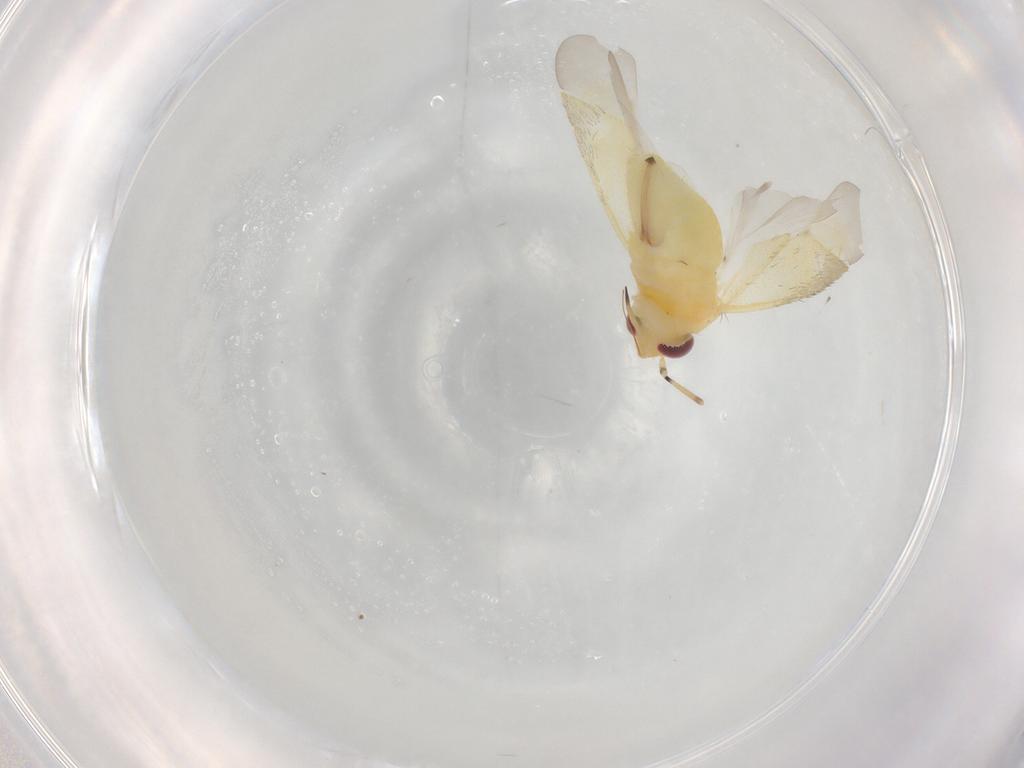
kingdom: Animalia
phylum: Arthropoda
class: Insecta
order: Hemiptera
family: Miridae
